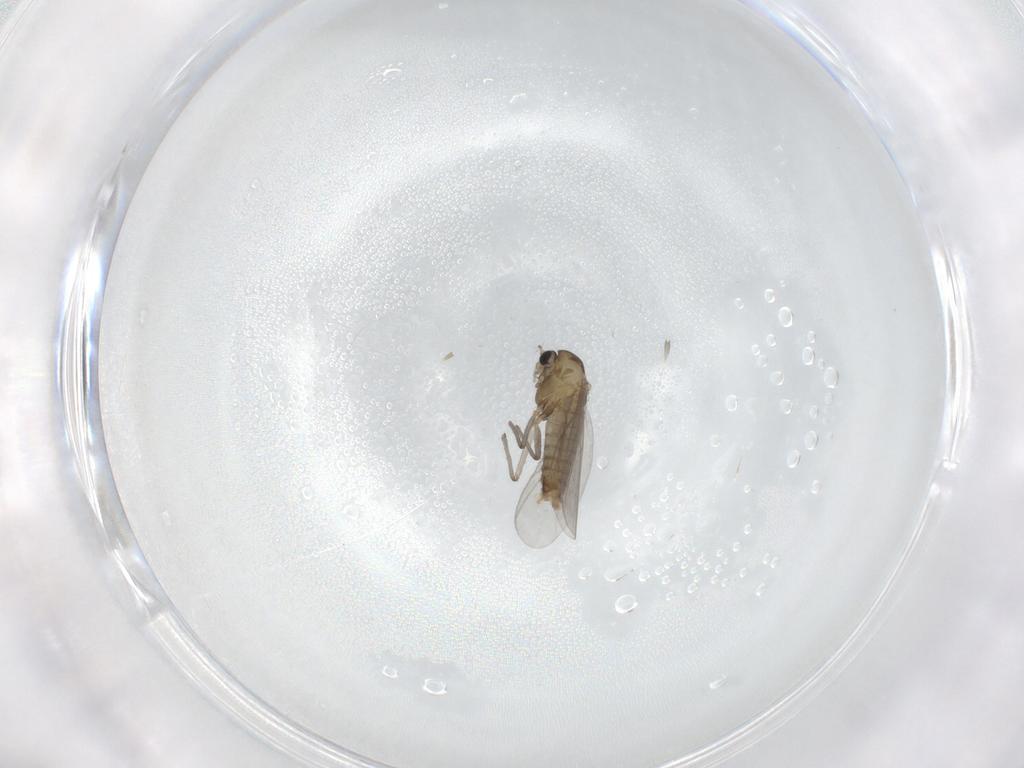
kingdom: Animalia
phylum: Arthropoda
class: Insecta
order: Diptera
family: Chironomidae
